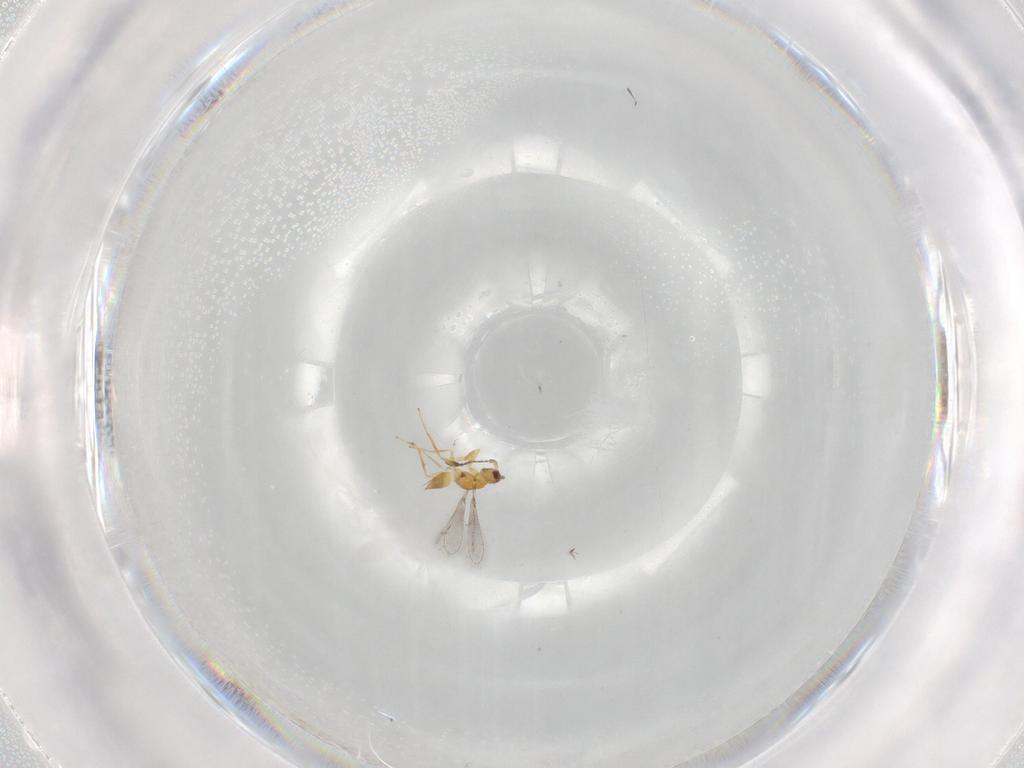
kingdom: Animalia
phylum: Arthropoda
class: Insecta
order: Hymenoptera
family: Mymaridae
